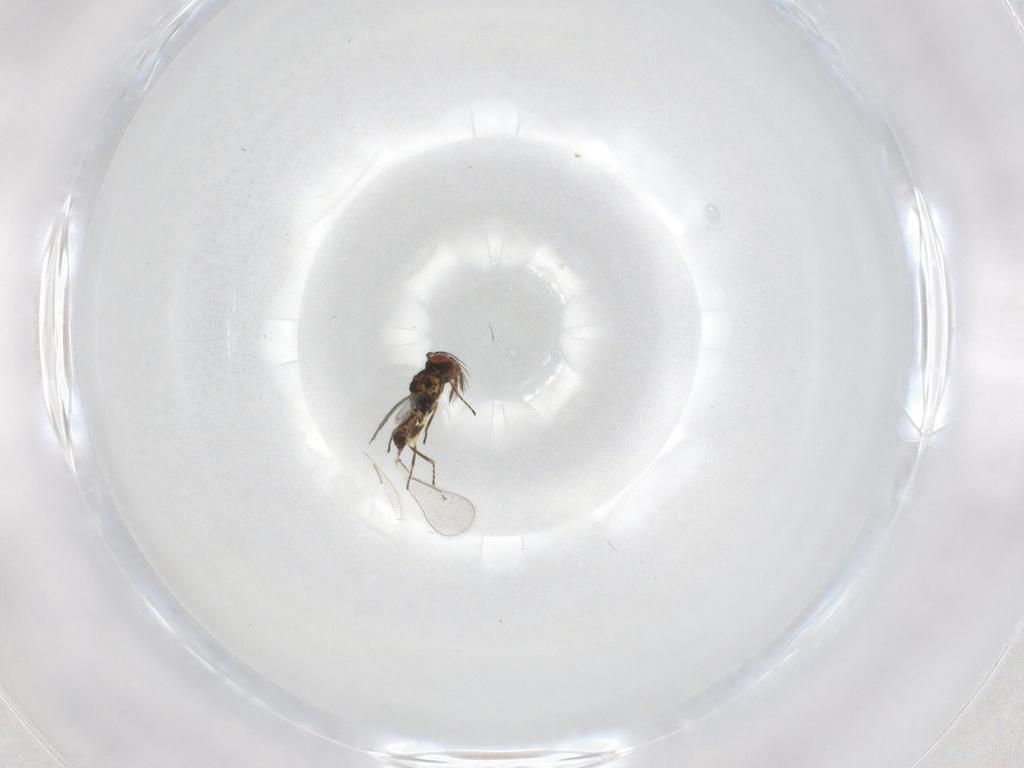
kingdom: Animalia
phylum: Arthropoda
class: Insecta
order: Hymenoptera
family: Eulophidae
